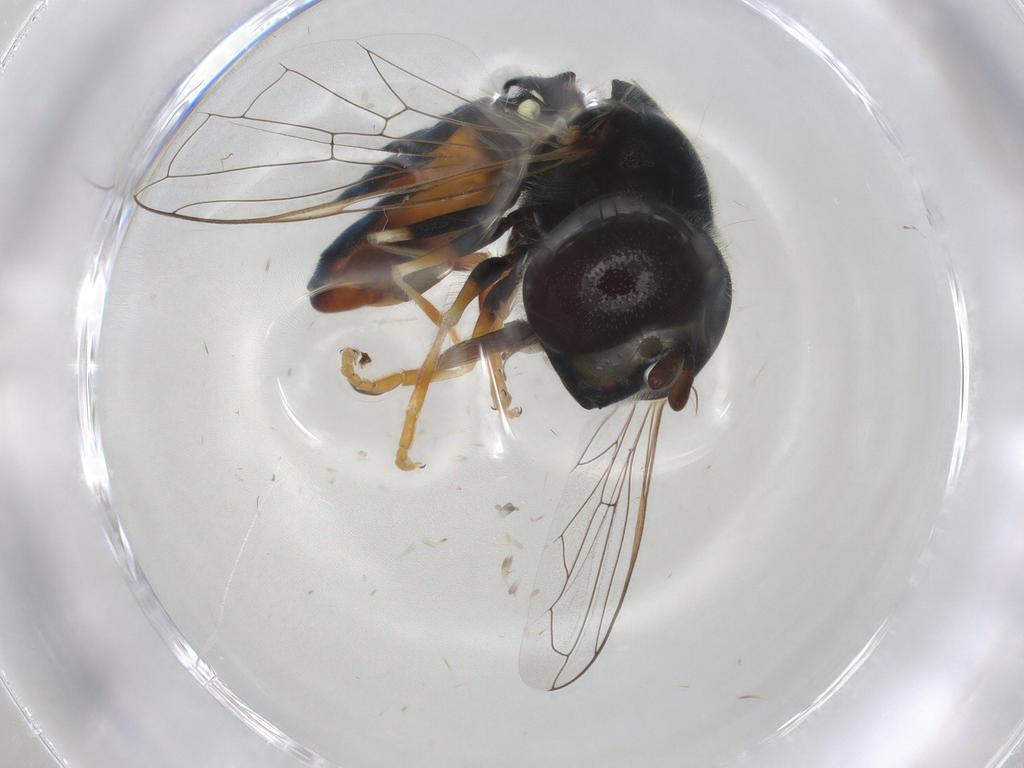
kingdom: Animalia
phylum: Arthropoda
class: Insecta
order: Diptera
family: Syrphidae
